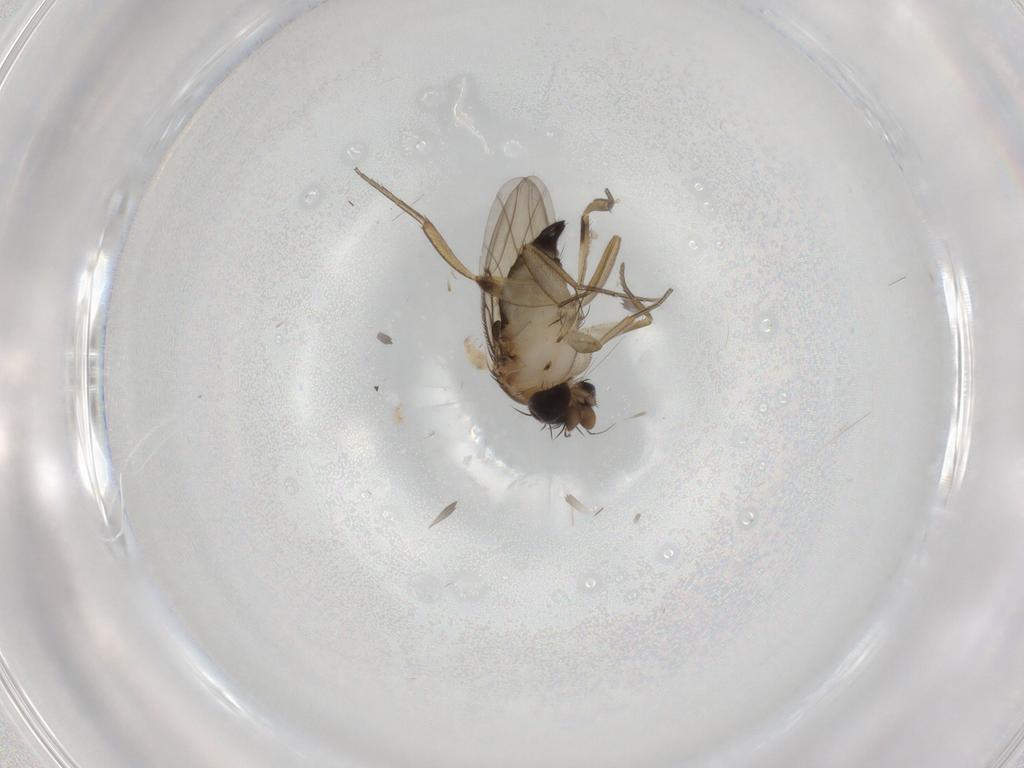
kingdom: Animalia
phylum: Arthropoda
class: Insecta
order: Diptera
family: Phoridae
